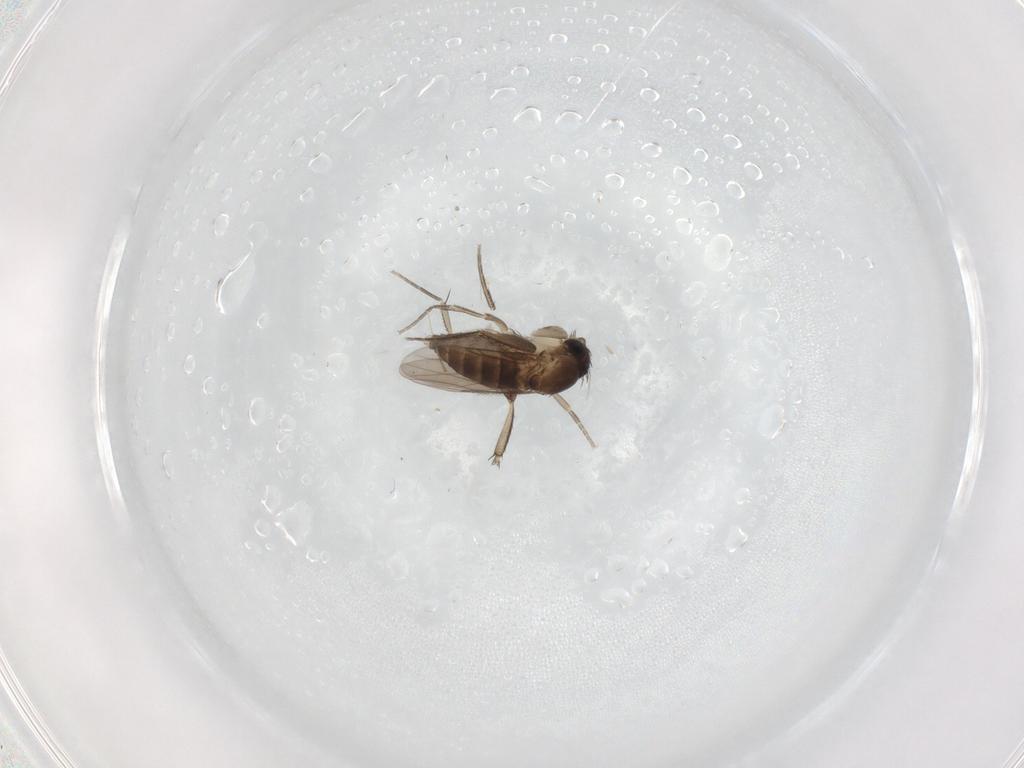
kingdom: Animalia
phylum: Arthropoda
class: Insecta
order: Diptera
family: Phoridae
